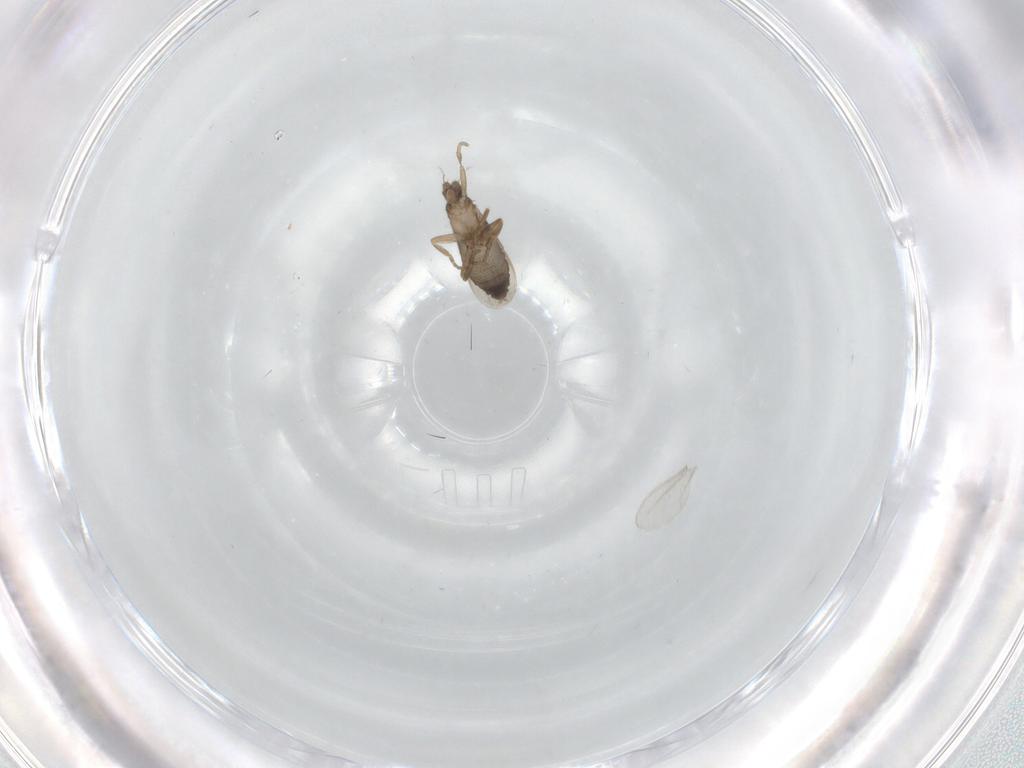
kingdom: Animalia
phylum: Arthropoda
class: Insecta
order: Diptera
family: Phoridae
